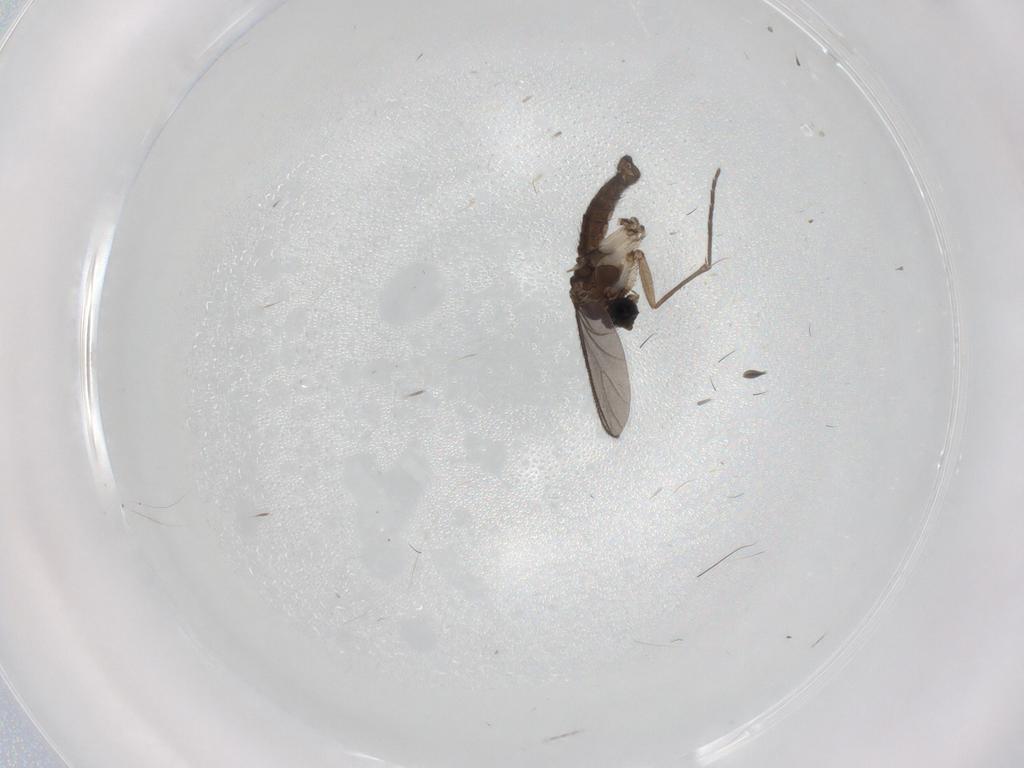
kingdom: Animalia
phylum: Arthropoda
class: Insecta
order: Diptera
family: Sciaridae
